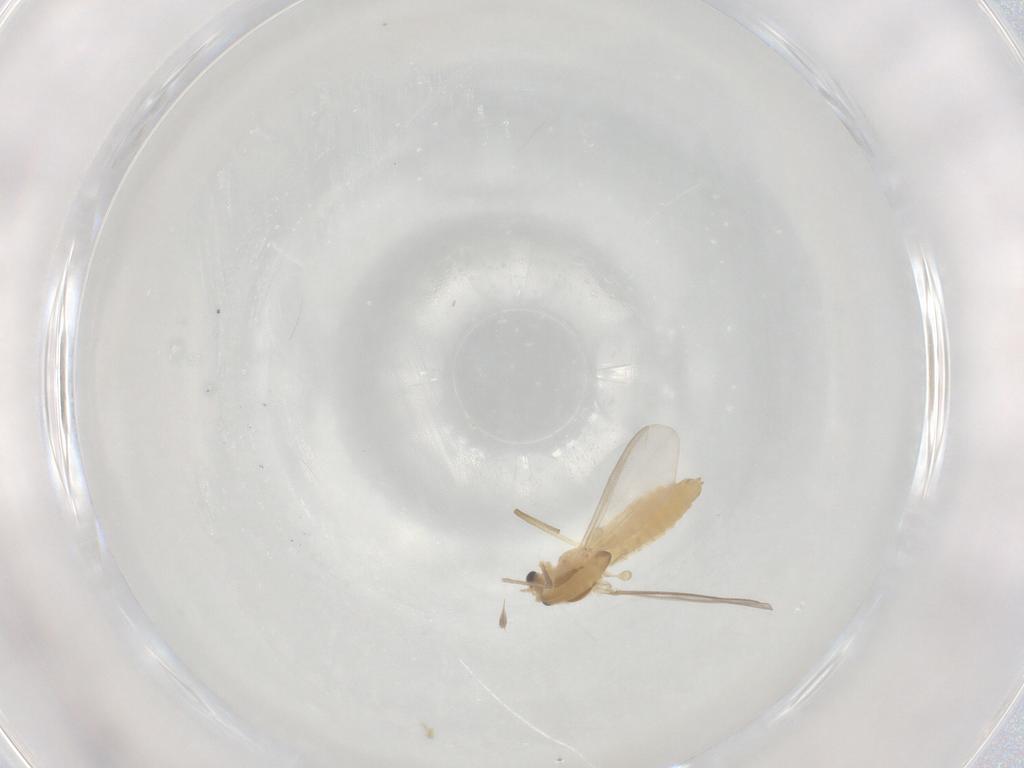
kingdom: Animalia
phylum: Arthropoda
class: Insecta
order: Diptera
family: Chironomidae
